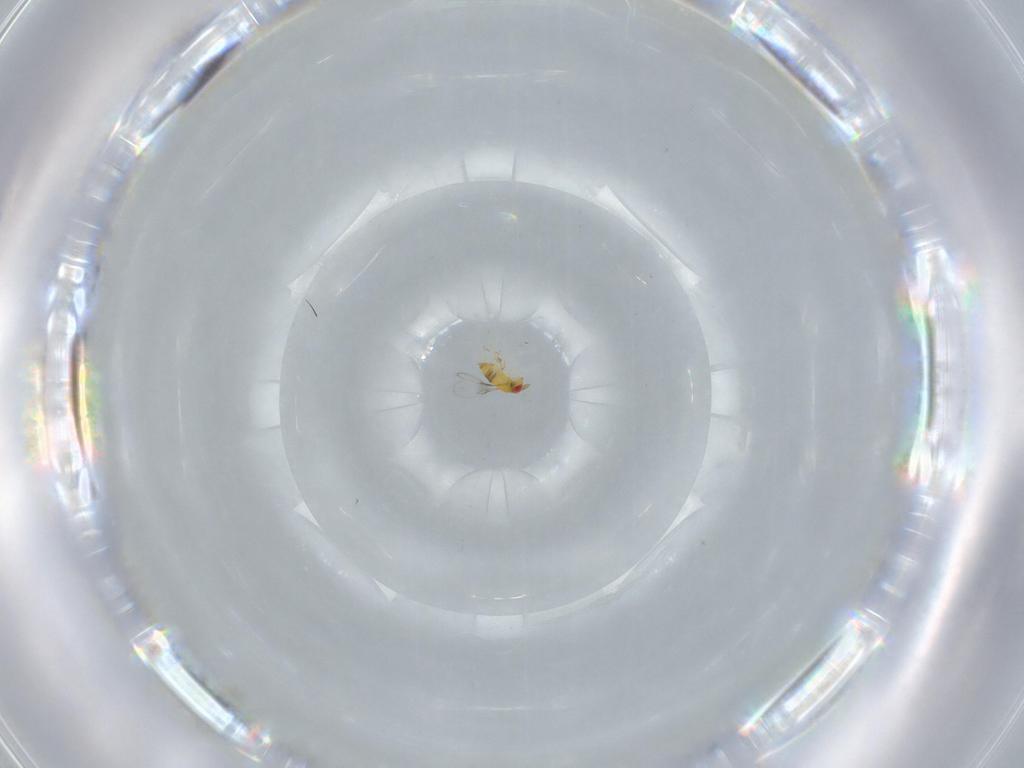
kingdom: Animalia
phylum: Arthropoda
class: Insecta
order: Hymenoptera
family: Trichogrammatidae
